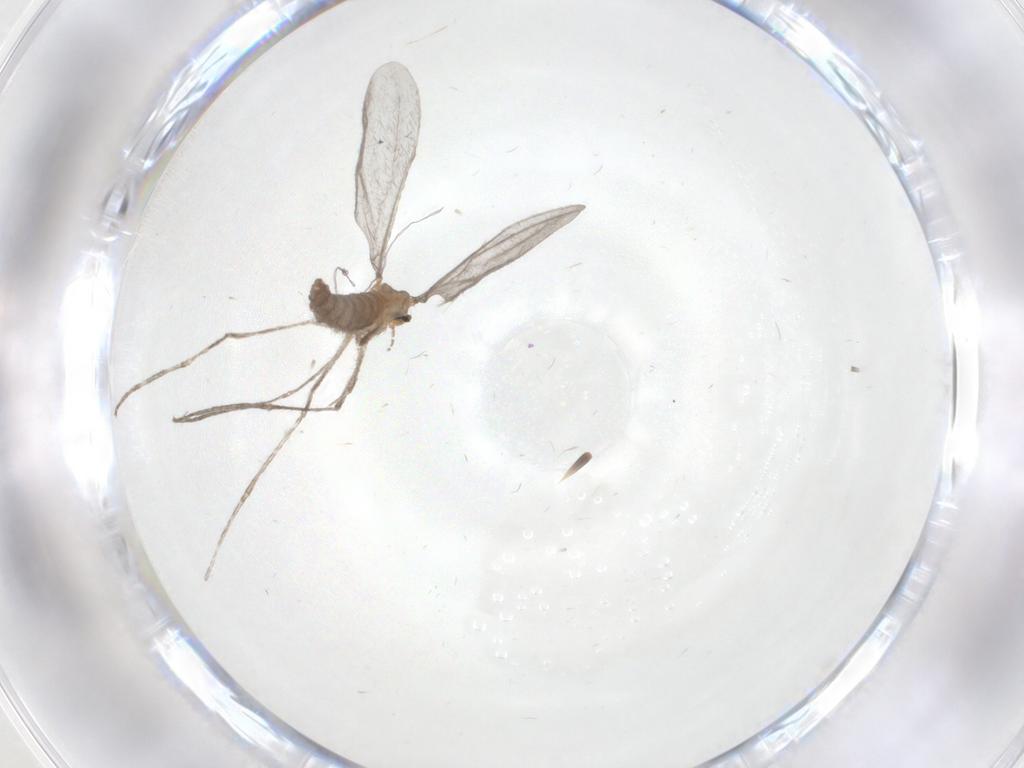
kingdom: Animalia
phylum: Arthropoda
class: Insecta
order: Diptera
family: Cecidomyiidae
